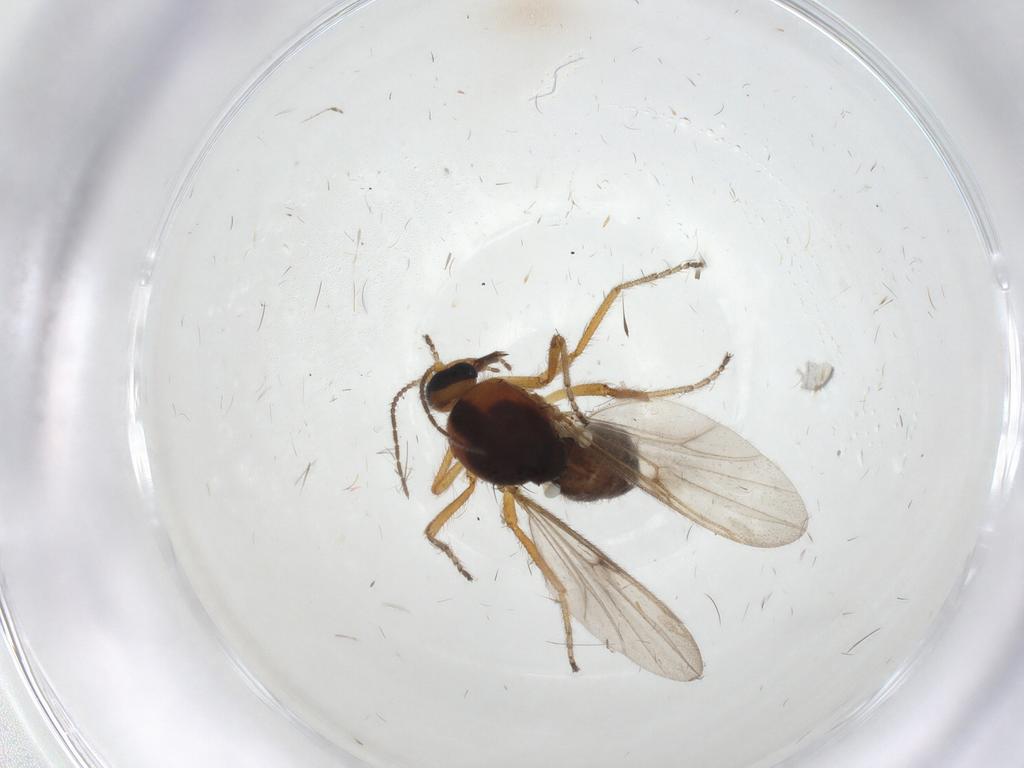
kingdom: Animalia
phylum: Arthropoda
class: Insecta
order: Diptera
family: Ceratopogonidae
